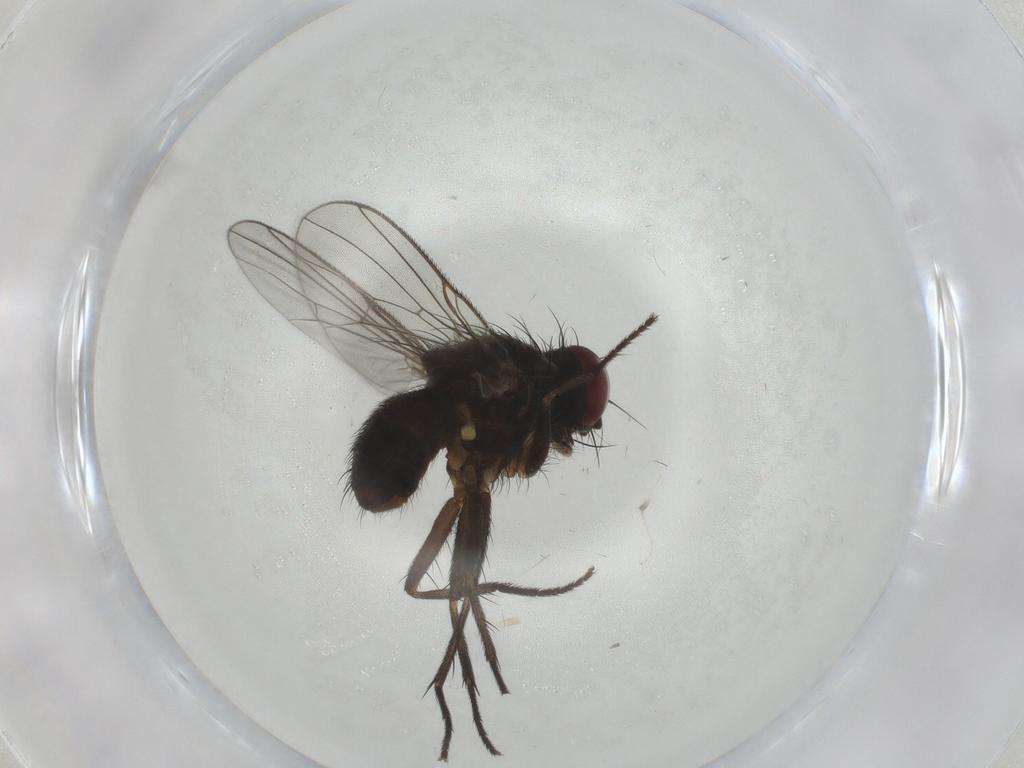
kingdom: Animalia
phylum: Arthropoda
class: Insecta
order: Diptera
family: Muscidae
